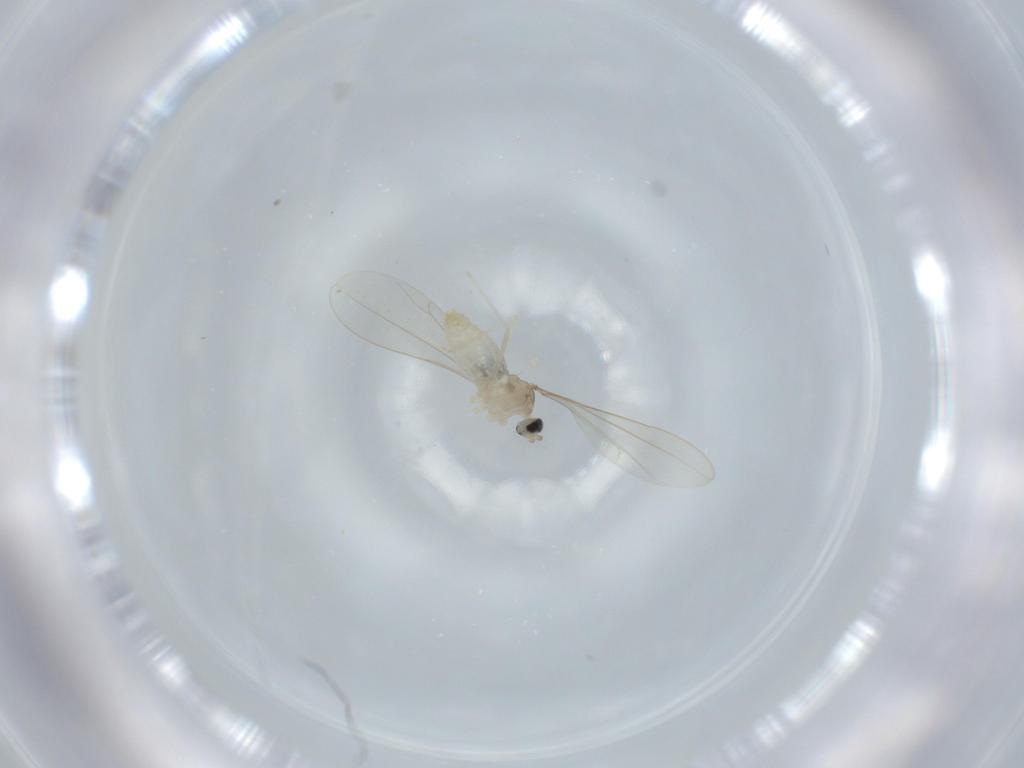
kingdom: Animalia
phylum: Arthropoda
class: Insecta
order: Diptera
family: Cecidomyiidae
